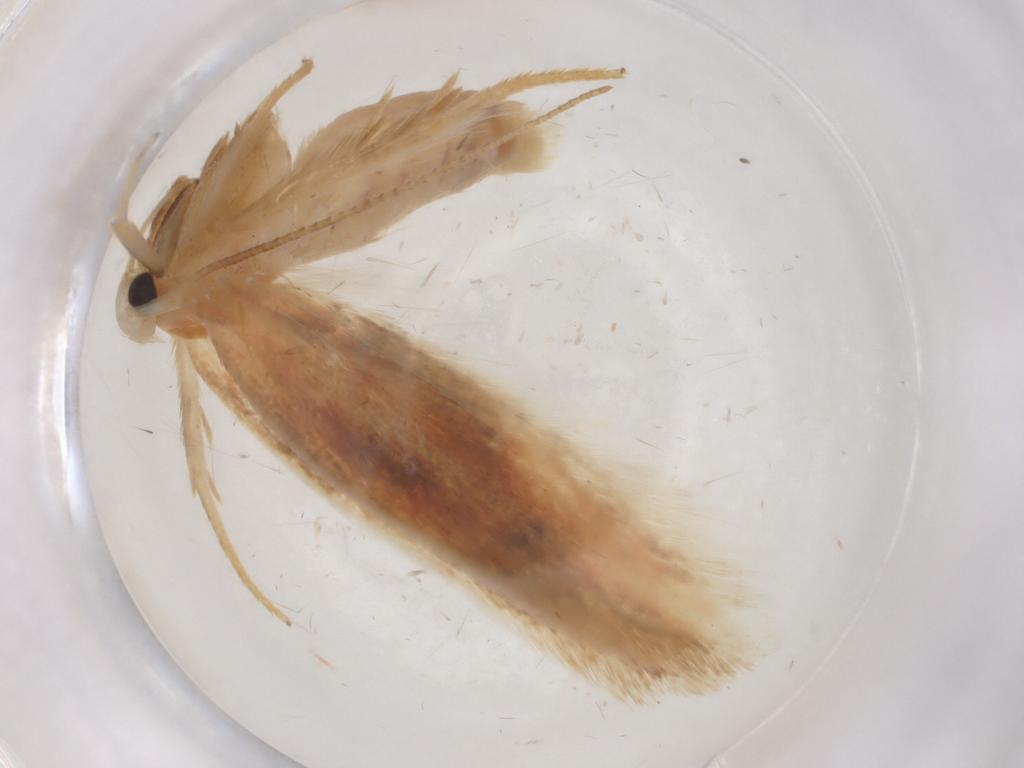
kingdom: Animalia
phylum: Arthropoda
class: Insecta
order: Lepidoptera
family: Geometridae
